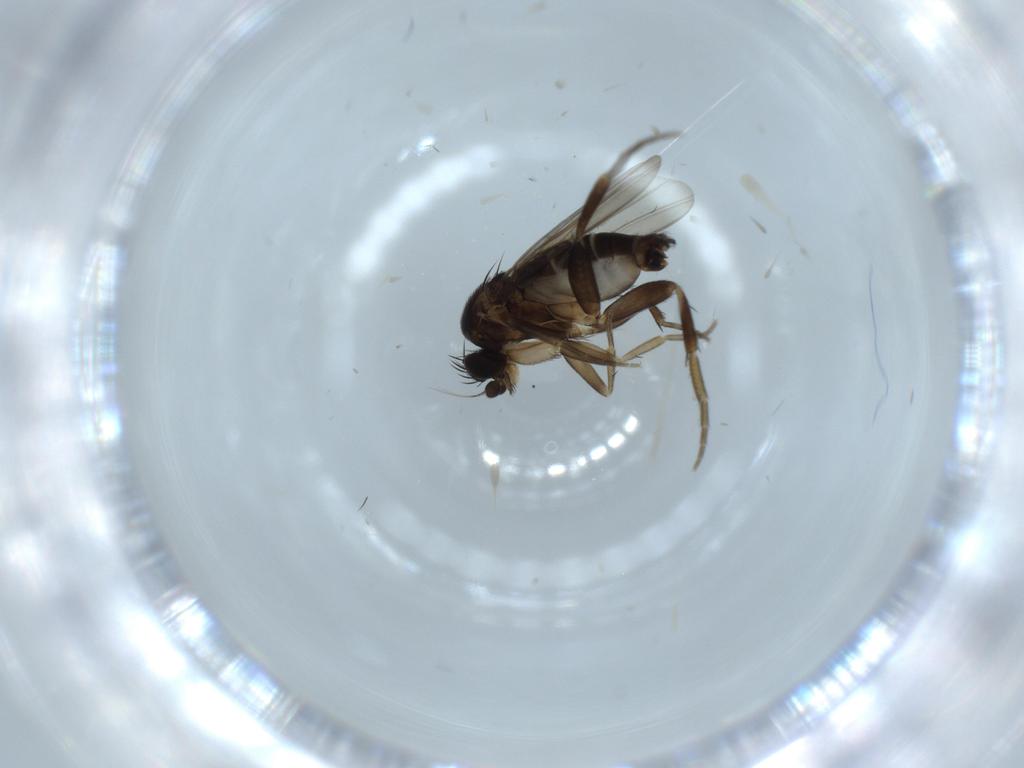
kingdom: Animalia
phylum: Arthropoda
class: Insecta
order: Diptera
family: Phoridae
